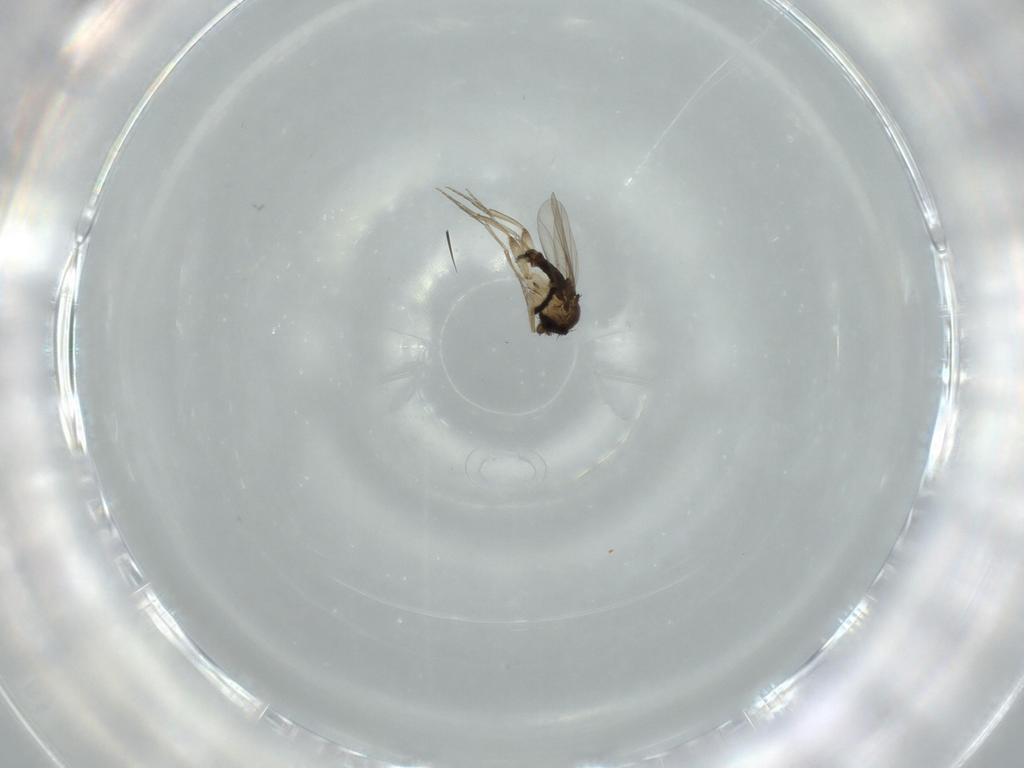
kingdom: Animalia
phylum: Arthropoda
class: Insecta
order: Diptera
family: Phoridae
